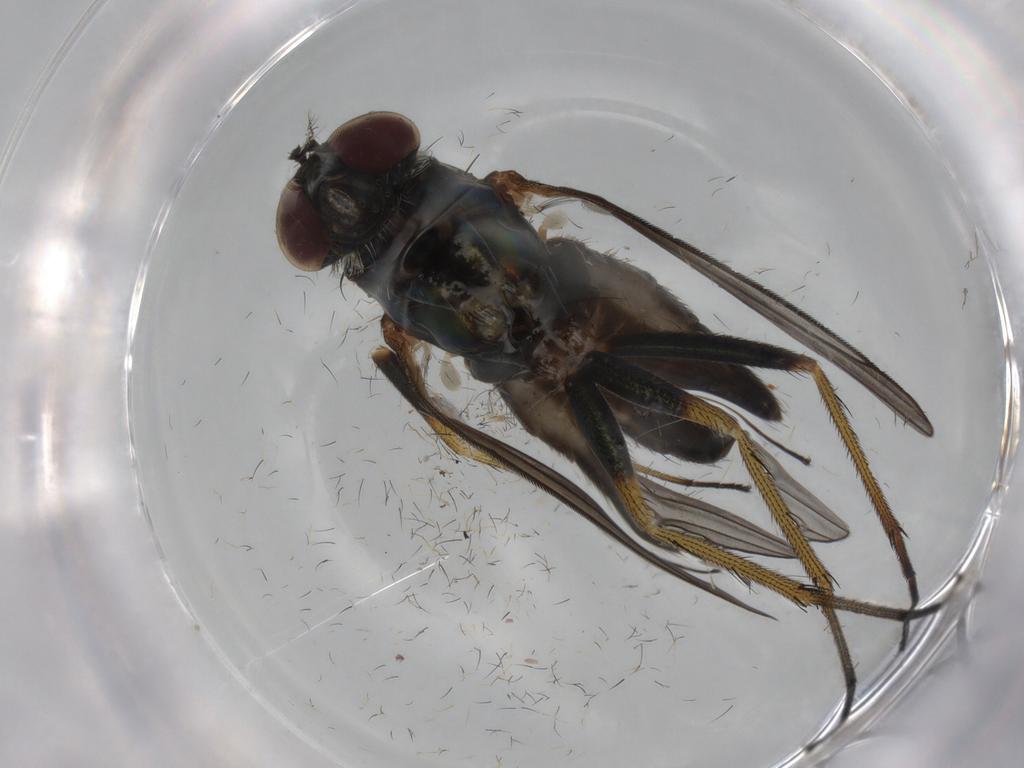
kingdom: Animalia
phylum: Arthropoda
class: Insecta
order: Diptera
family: Dolichopodidae
